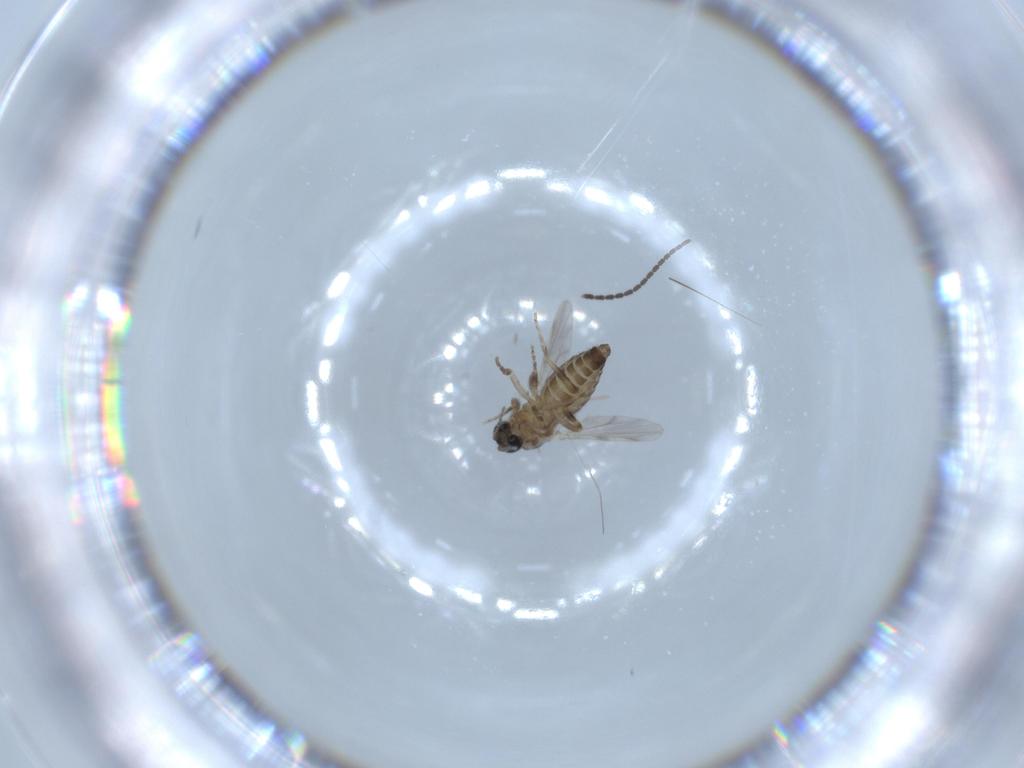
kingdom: Animalia
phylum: Arthropoda
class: Insecta
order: Diptera
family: Ceratopogonidae
